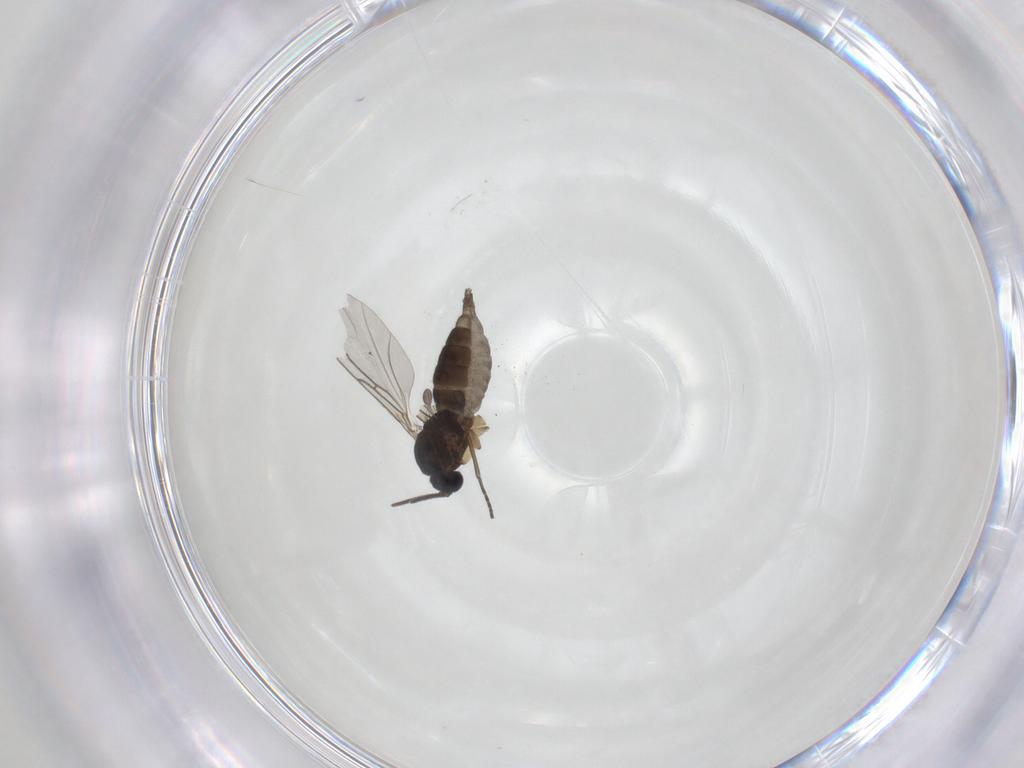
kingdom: Animalia
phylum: Arthropoda
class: Insecta
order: Diptera
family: Sciaridae
